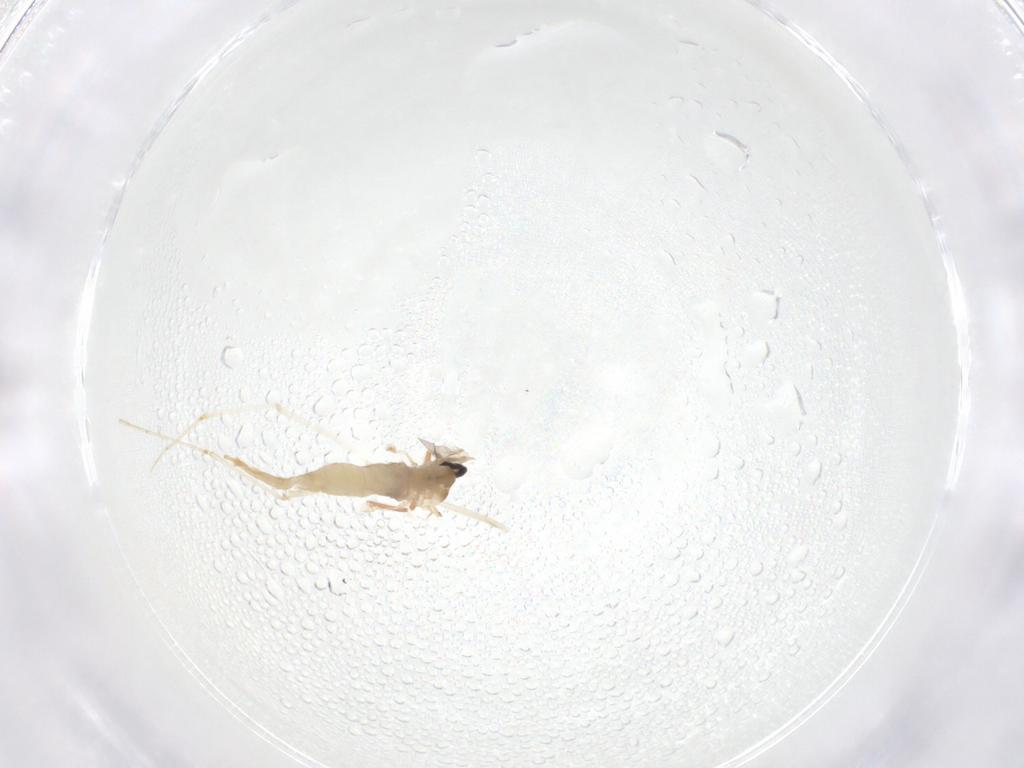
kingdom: Animalia
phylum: Arthropoda
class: Insecta
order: Diptera
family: Cecidomyiidae
